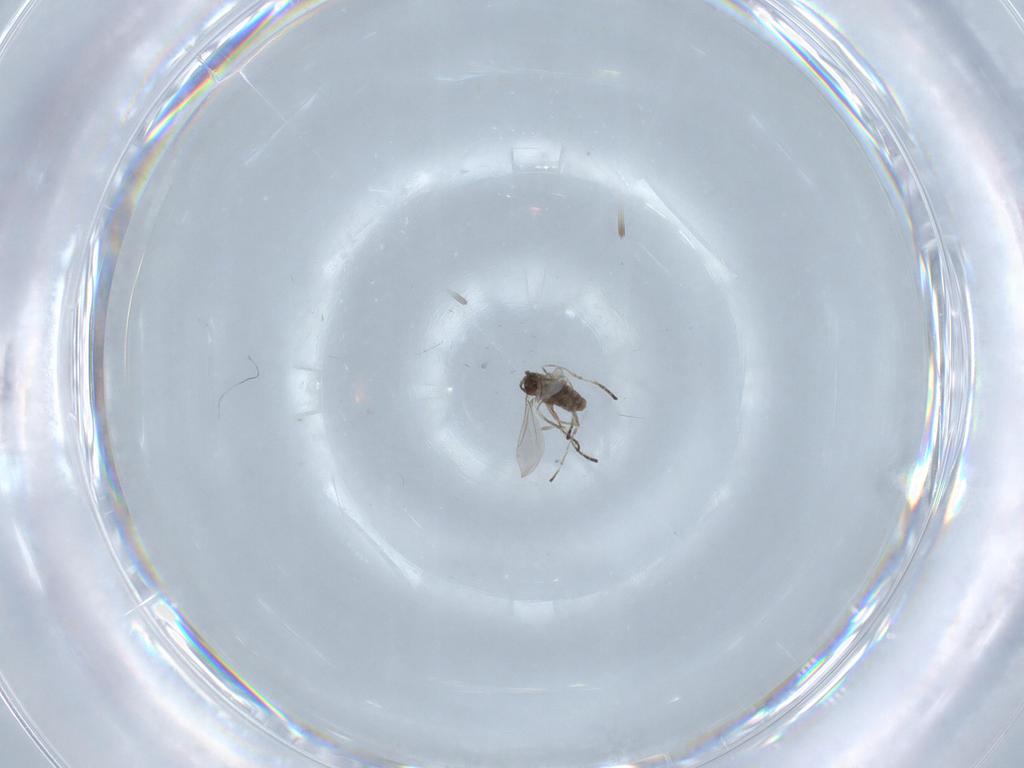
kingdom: Animalia
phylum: Arthropoda
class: Insecta
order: Diptera
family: Cecidomyiidae
